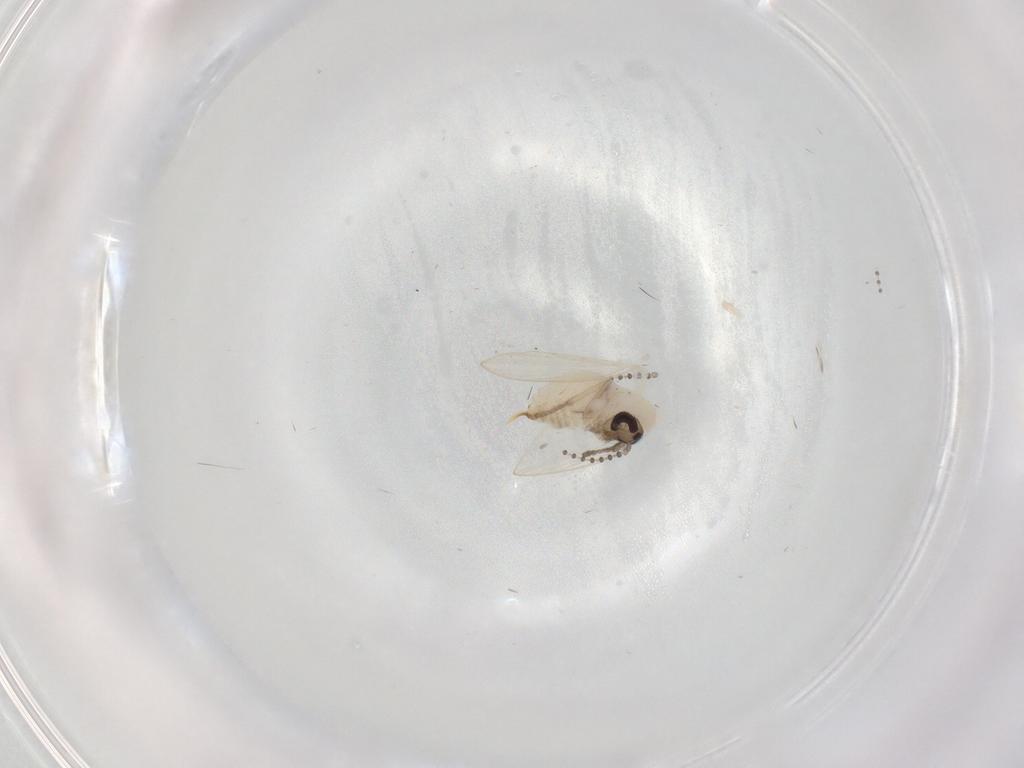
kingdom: Animalia
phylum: Arthropoda
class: Insecta
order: Diptera
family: Psychodidae
